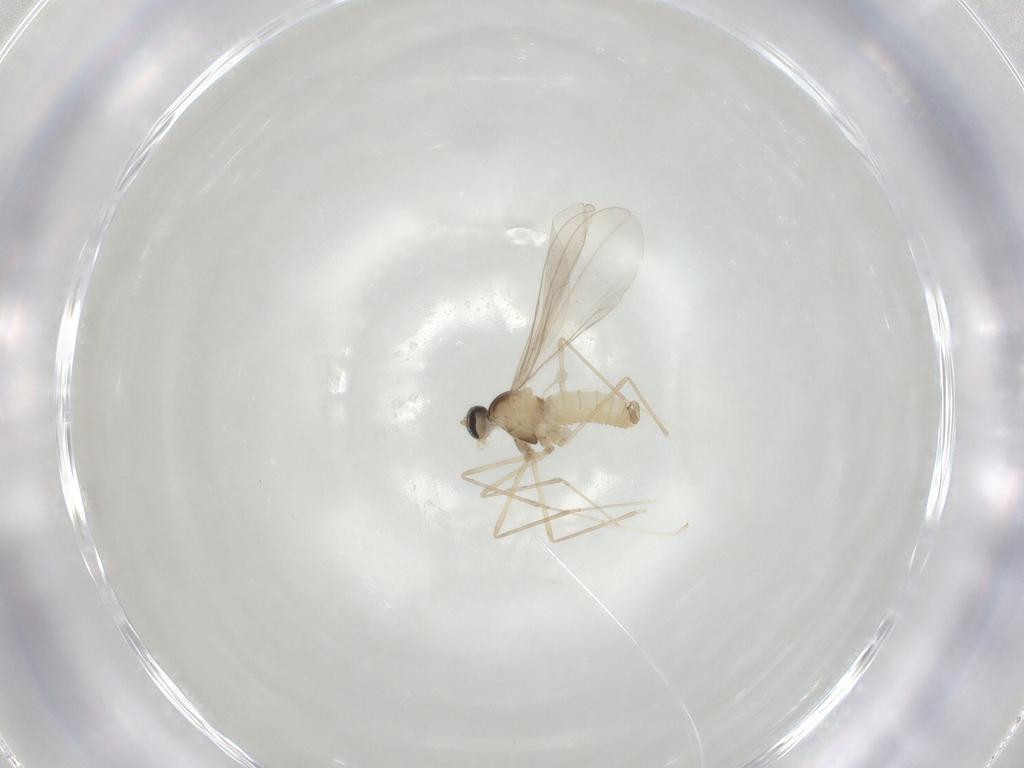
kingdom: Animalia
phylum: Arthropoda
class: Insecta
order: Diptera
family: Cecidomyiidae
